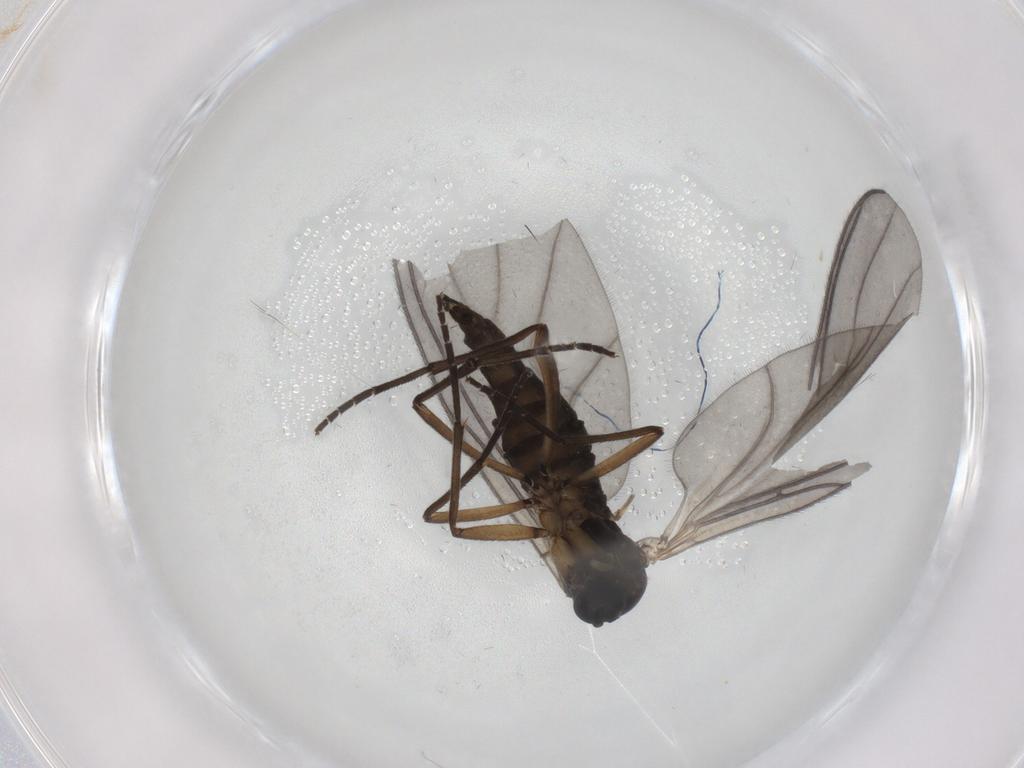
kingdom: Animalia
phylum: Arthropoda
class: Insecta
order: Diptera
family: Sciaridae
